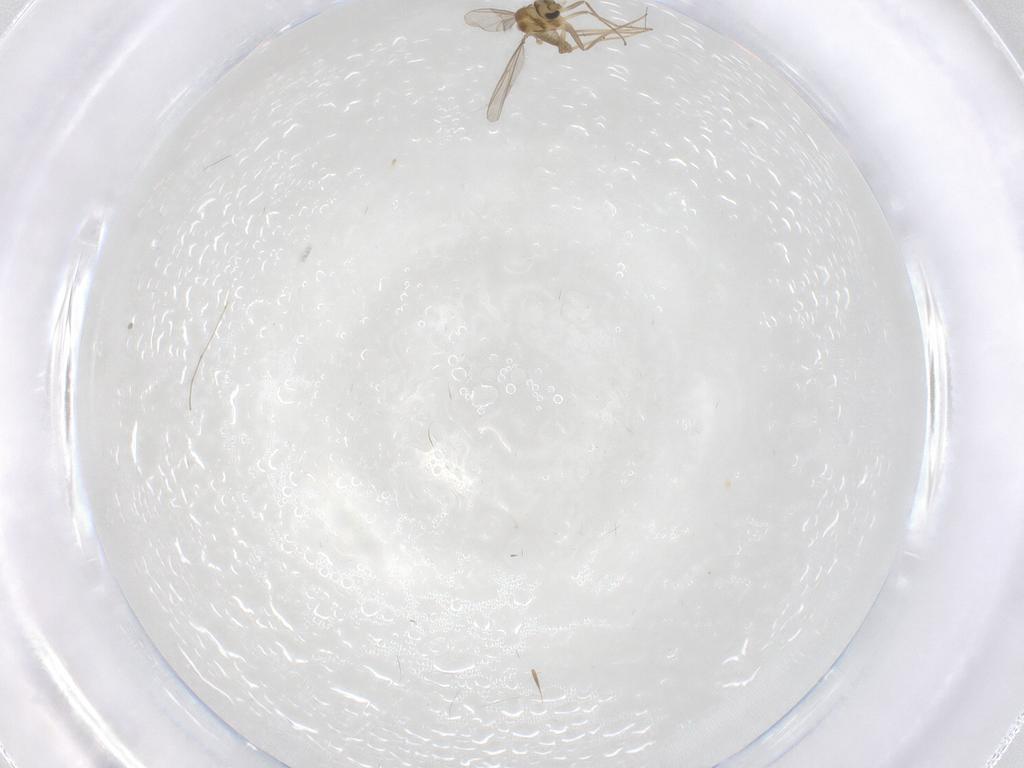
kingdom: Animalia
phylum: Arthropoda
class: Insecta
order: Diptera
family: Chironomidae
